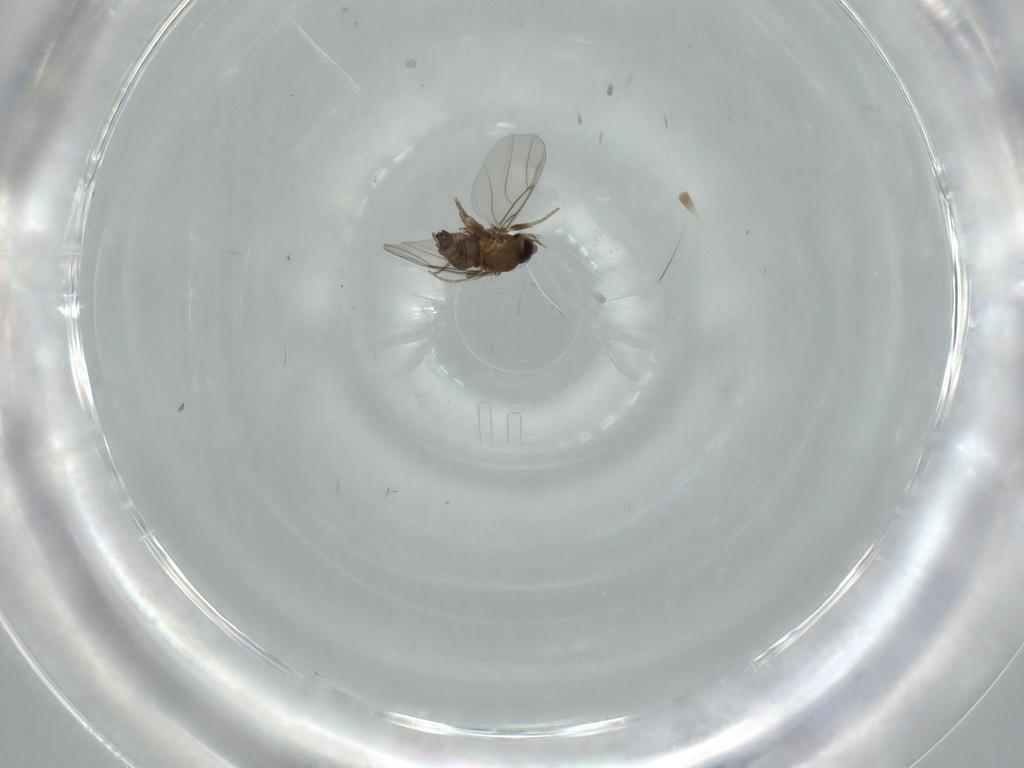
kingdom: Animalia
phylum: Arthropoda
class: Insecta
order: Diptera
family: Phoridae
